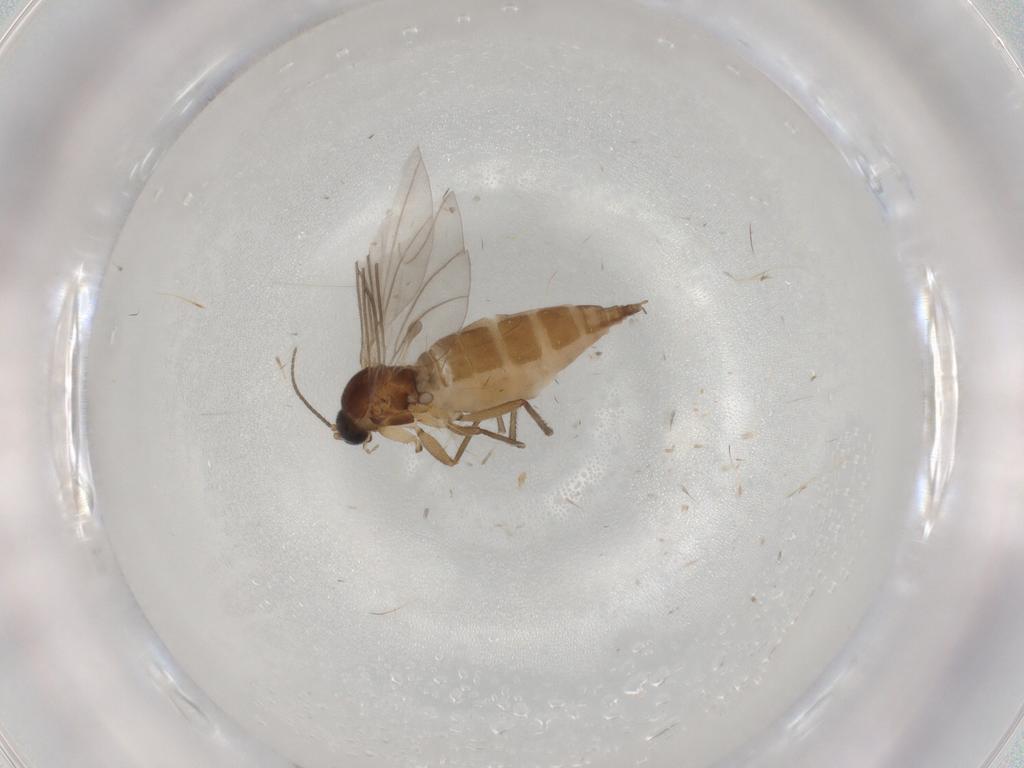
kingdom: Animalia
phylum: Arthropoda
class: Insecta
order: Diptera
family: Sciaridae
